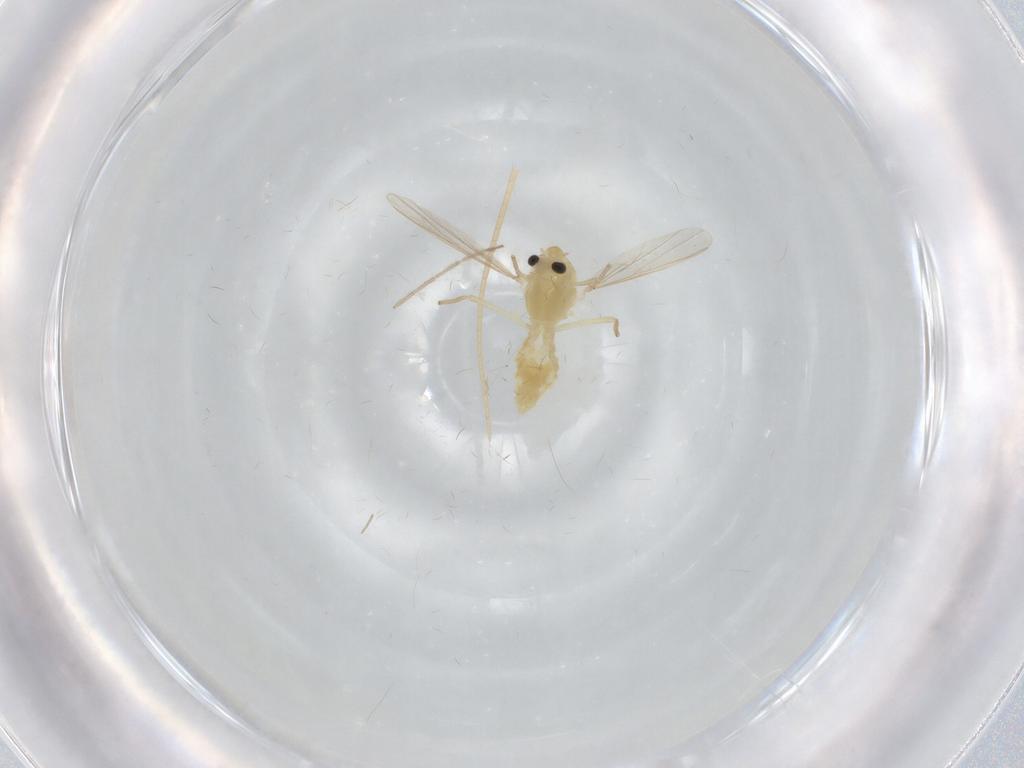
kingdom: Animalia
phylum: Arthropoda
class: Insecta
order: Diptera
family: Chironomidae
